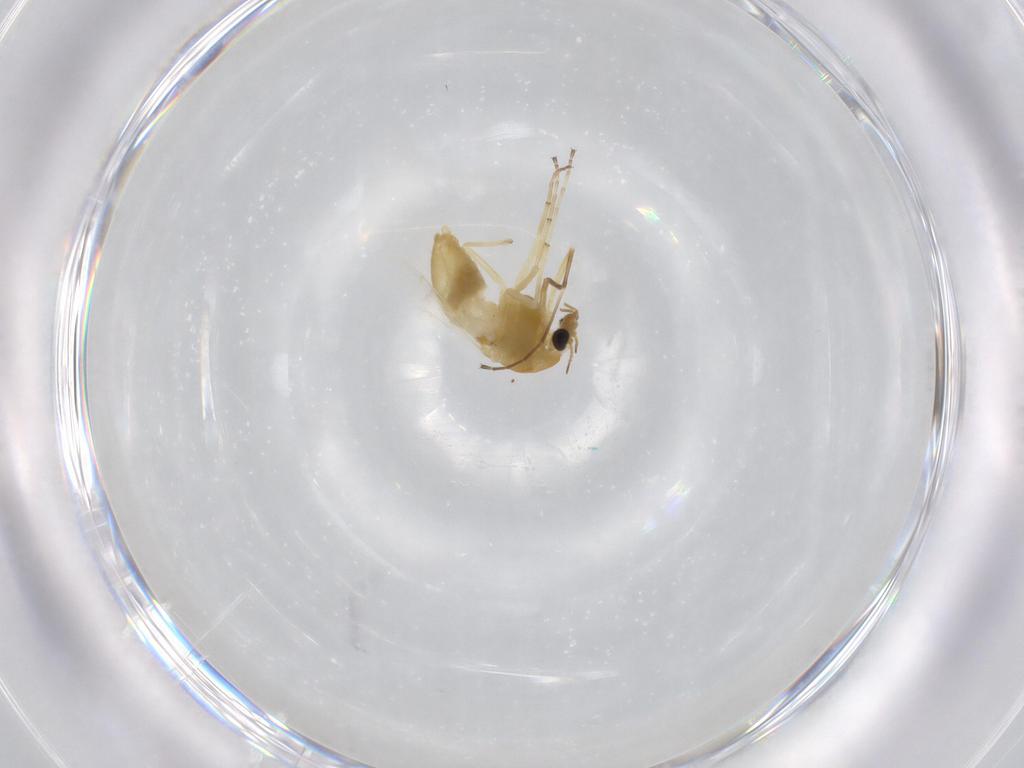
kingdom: Animalia
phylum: Arthropoda
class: Insecta
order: Diptera
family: Chironomidae
